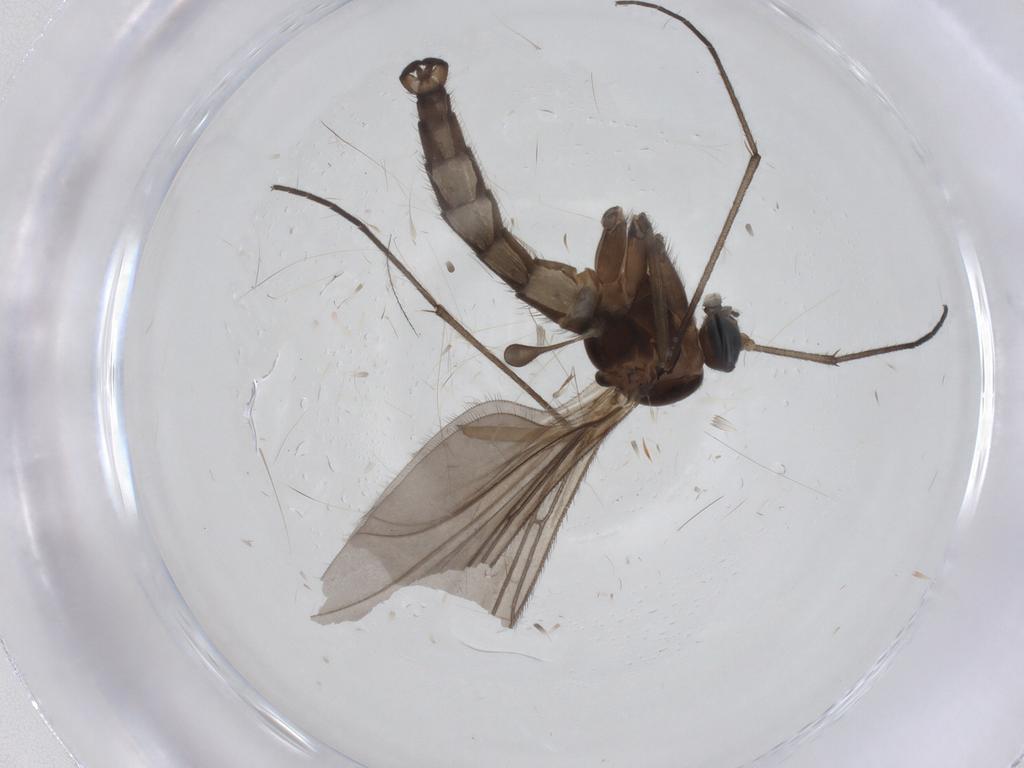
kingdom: Animalia
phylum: Arthropoda
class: Insecta
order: Diptera
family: Sciaridae
